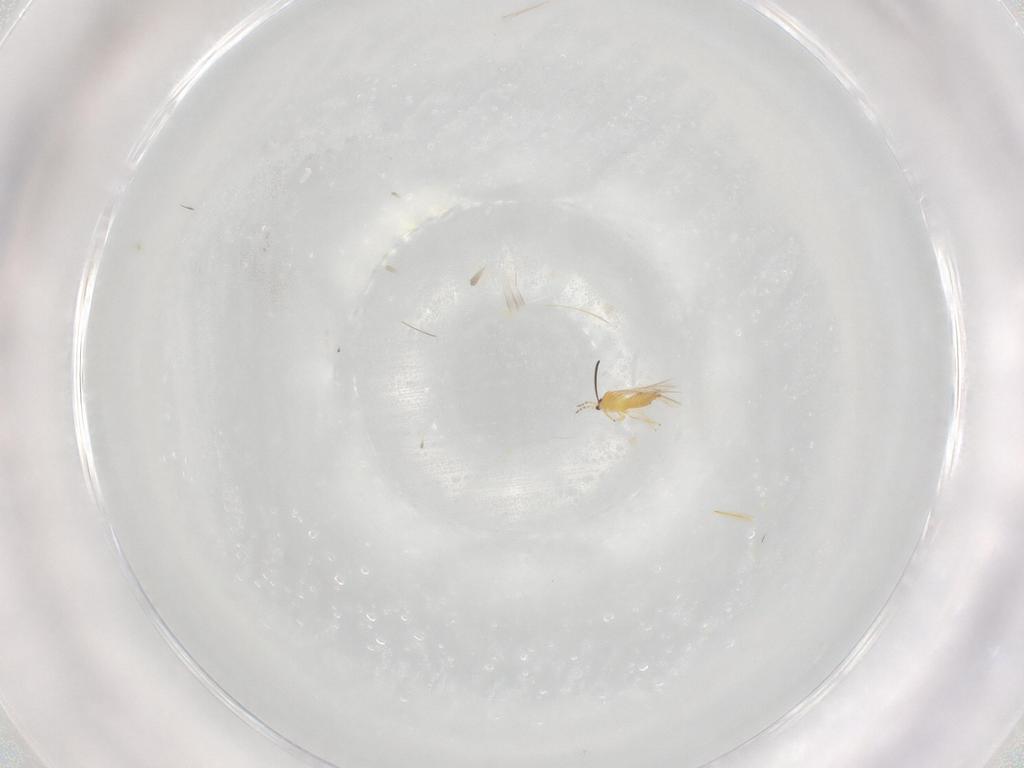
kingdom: Animalia
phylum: Arthropoda
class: Insecta
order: Thysanoptera
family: Thripidae
